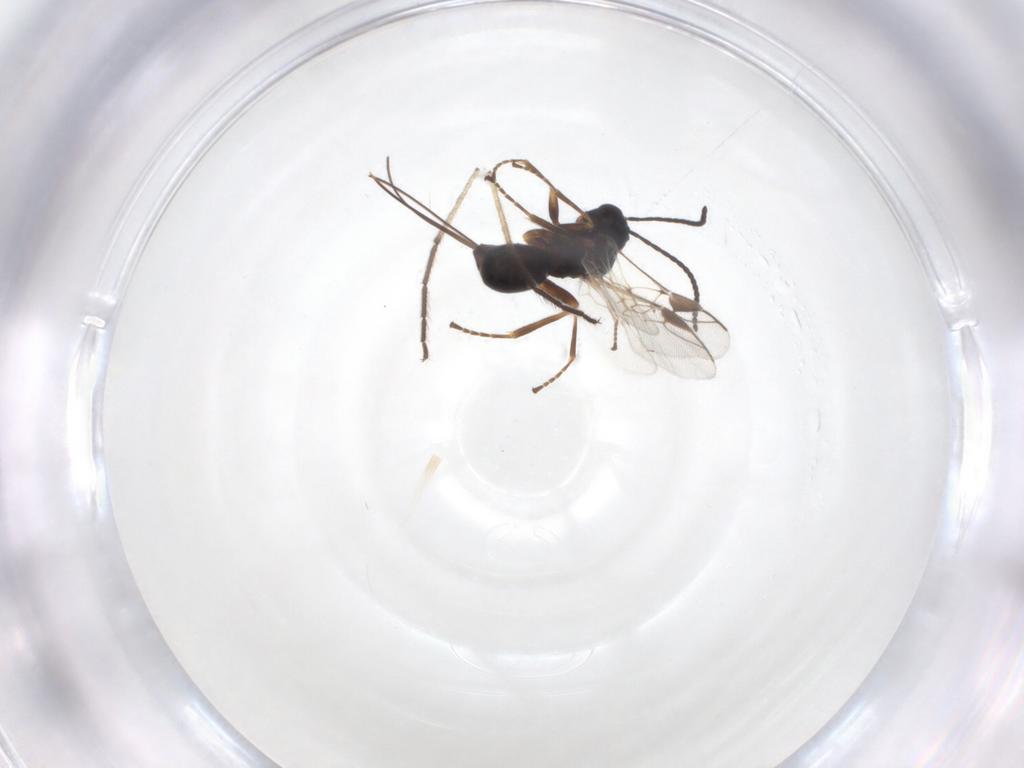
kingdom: Animalia
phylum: Arthropoda
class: Insecta
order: Hymenoptera
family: Braconidae
